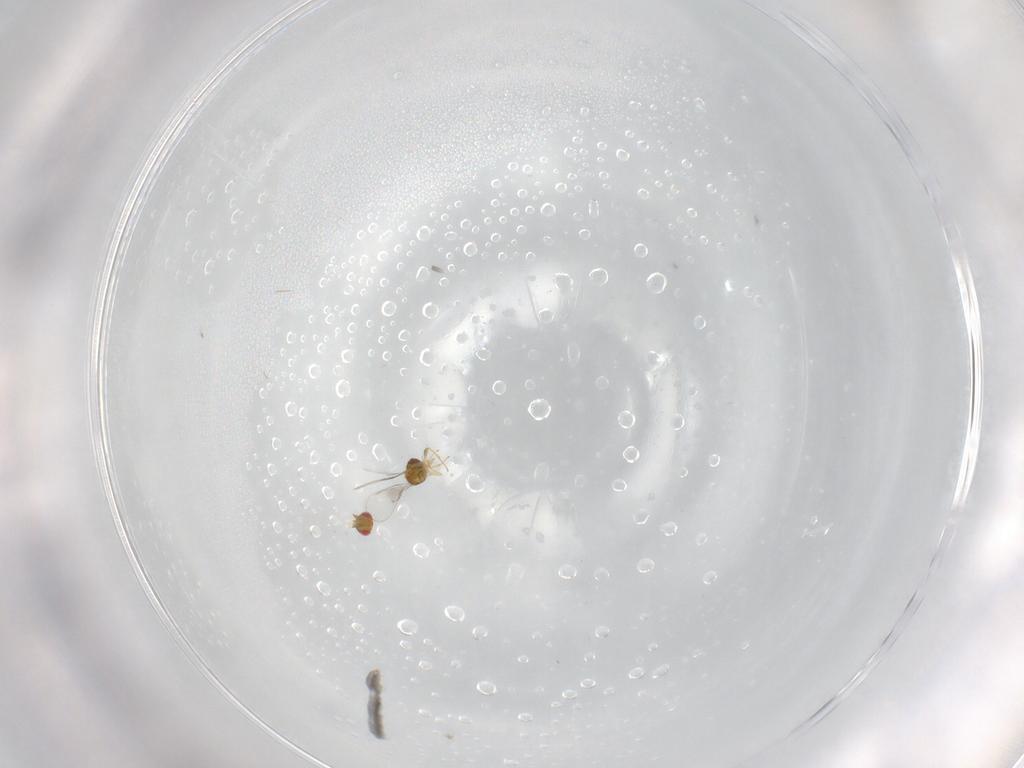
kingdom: Animalia
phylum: Arthropoda
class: Insecta
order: Hymenoptera
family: Trichogrammatidae
